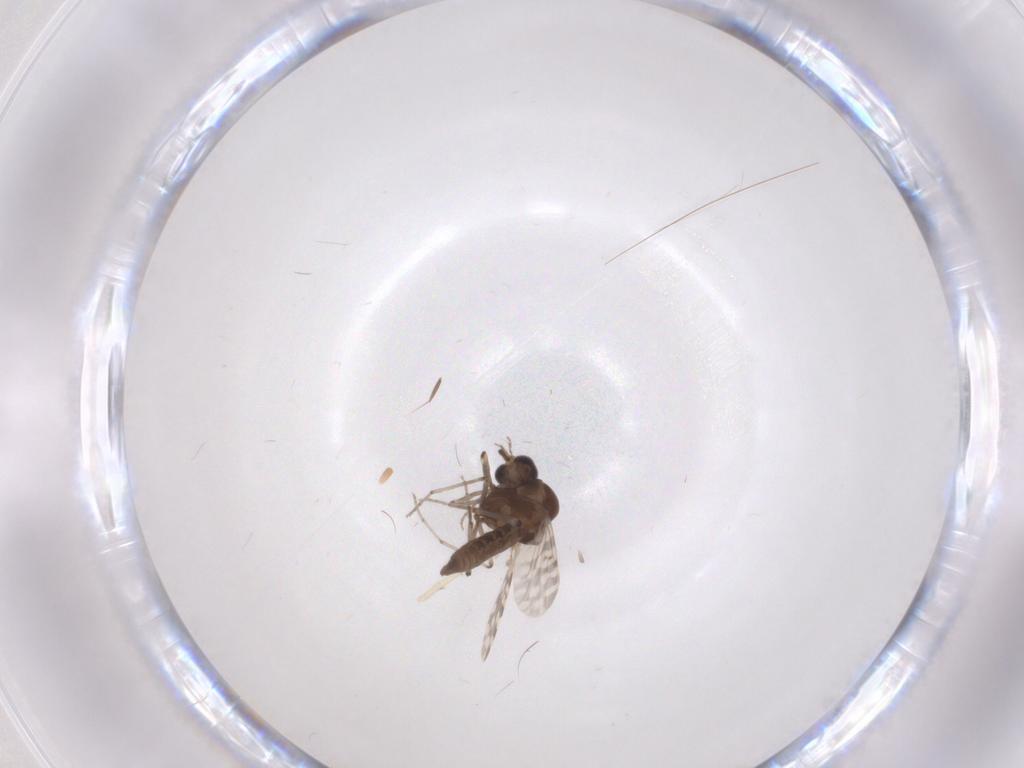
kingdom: Animalia
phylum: Arthropoda
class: Insecta
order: Diptera
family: Chironomidae
